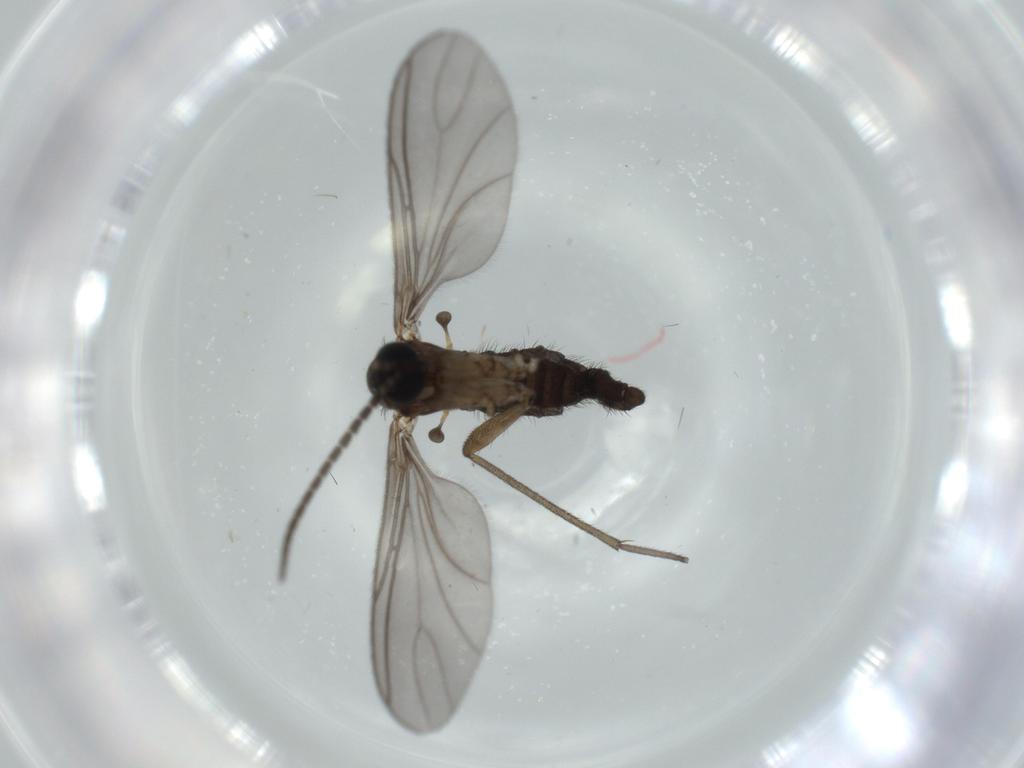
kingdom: Animalia
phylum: Arthropoda
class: Insecta
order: Diptera
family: Sciaridae
